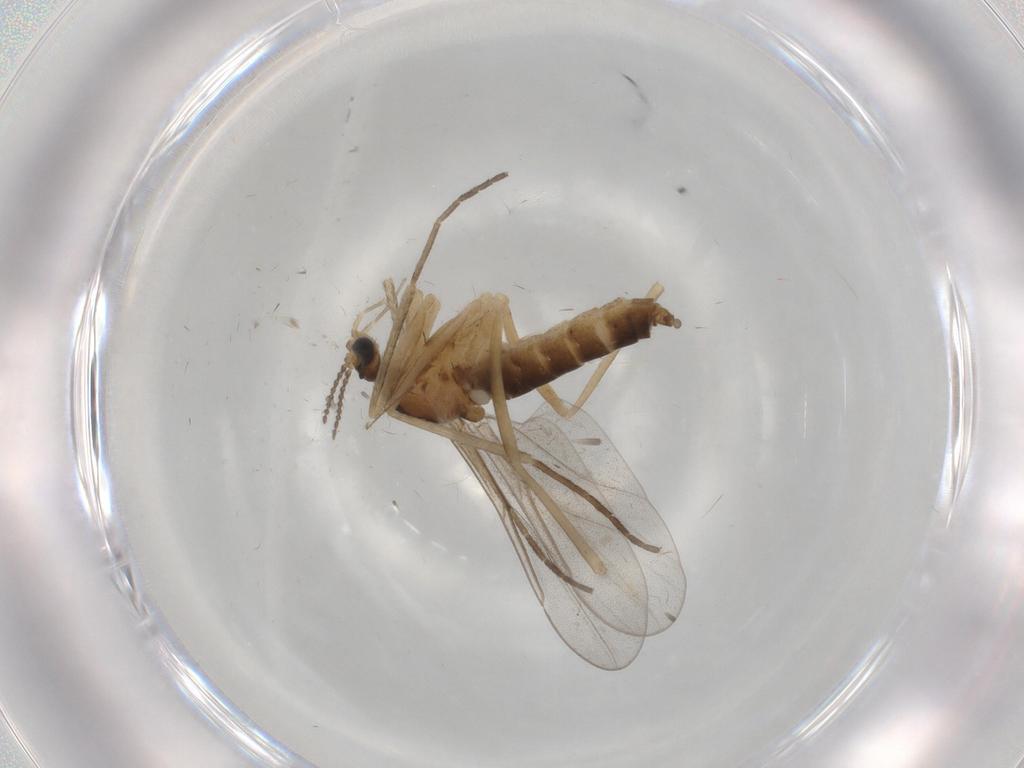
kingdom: Animalia
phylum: Arthropoda
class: Insecta
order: Diptera
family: Cecidomyiidae
